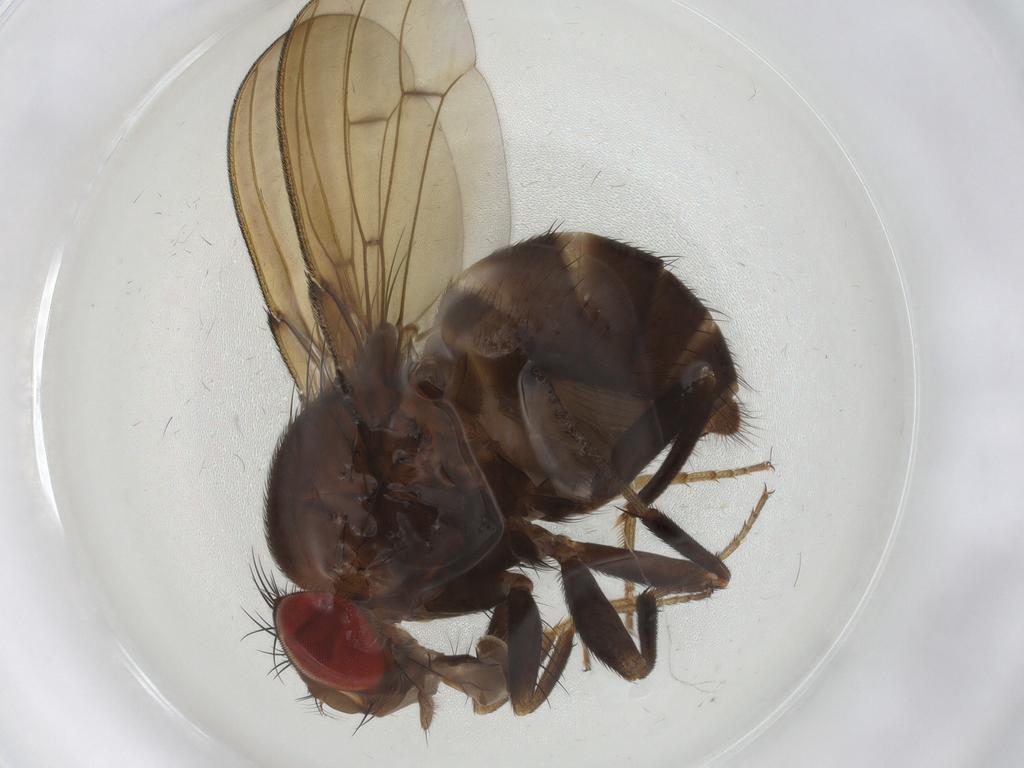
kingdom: Animalia
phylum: Arthropoda
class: Insecta
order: Diptera
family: Drosophilidae
